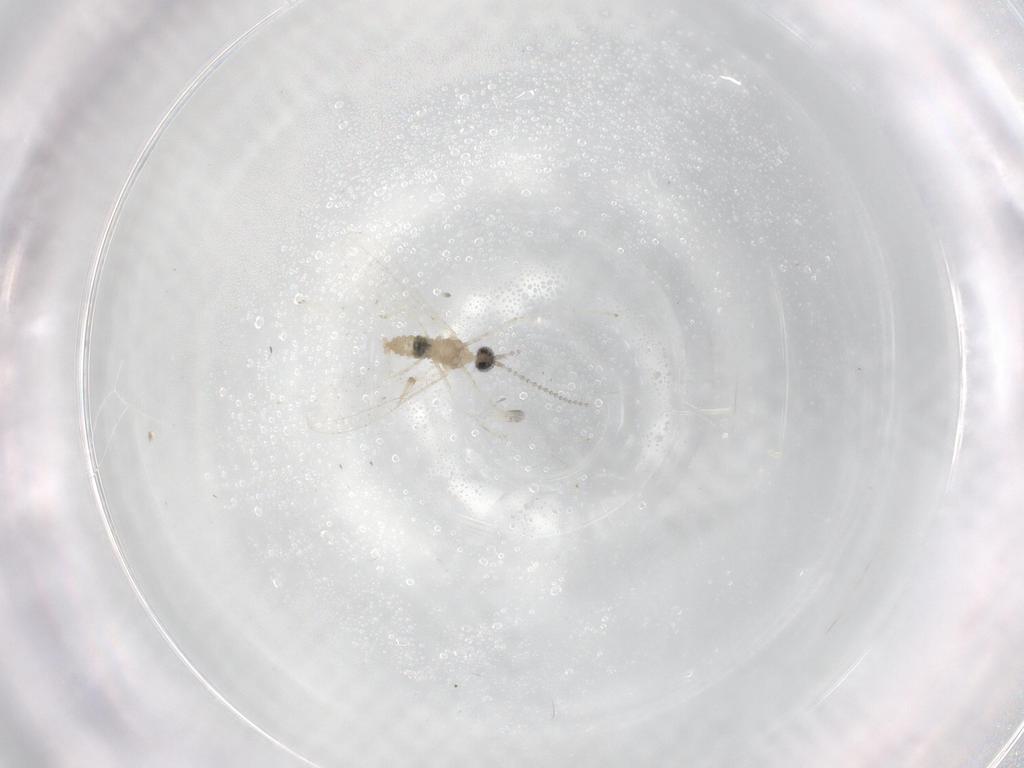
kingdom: Animalia
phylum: Arthropoda
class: Insecta
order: Diptera
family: Cecidomyiidae
